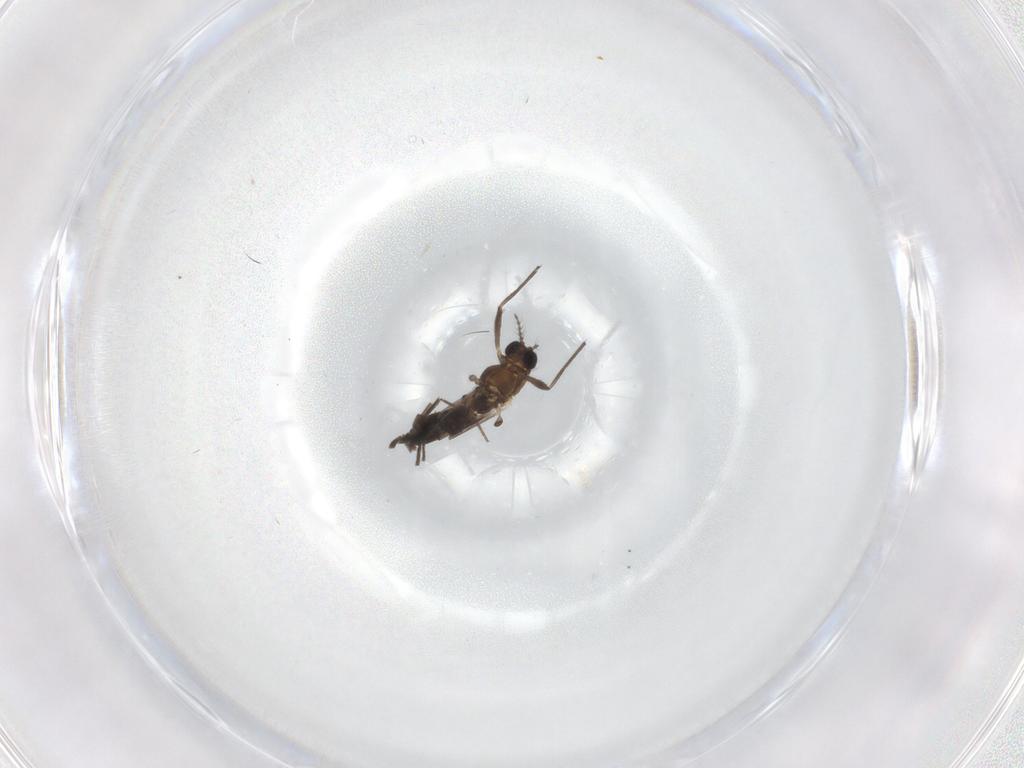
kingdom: Animalia
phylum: Arthropoda
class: Insecta
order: Diptera
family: Chironomidae
